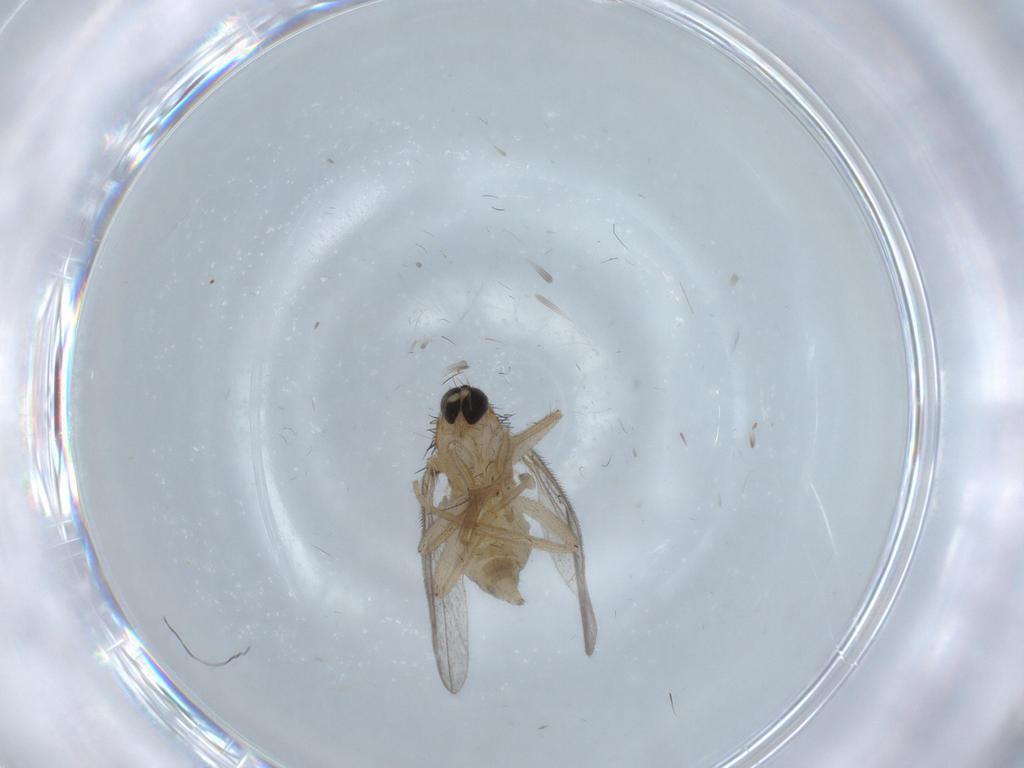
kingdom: Animalia
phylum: Arthropoda
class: Insecta
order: Diptera
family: Hybotidae
